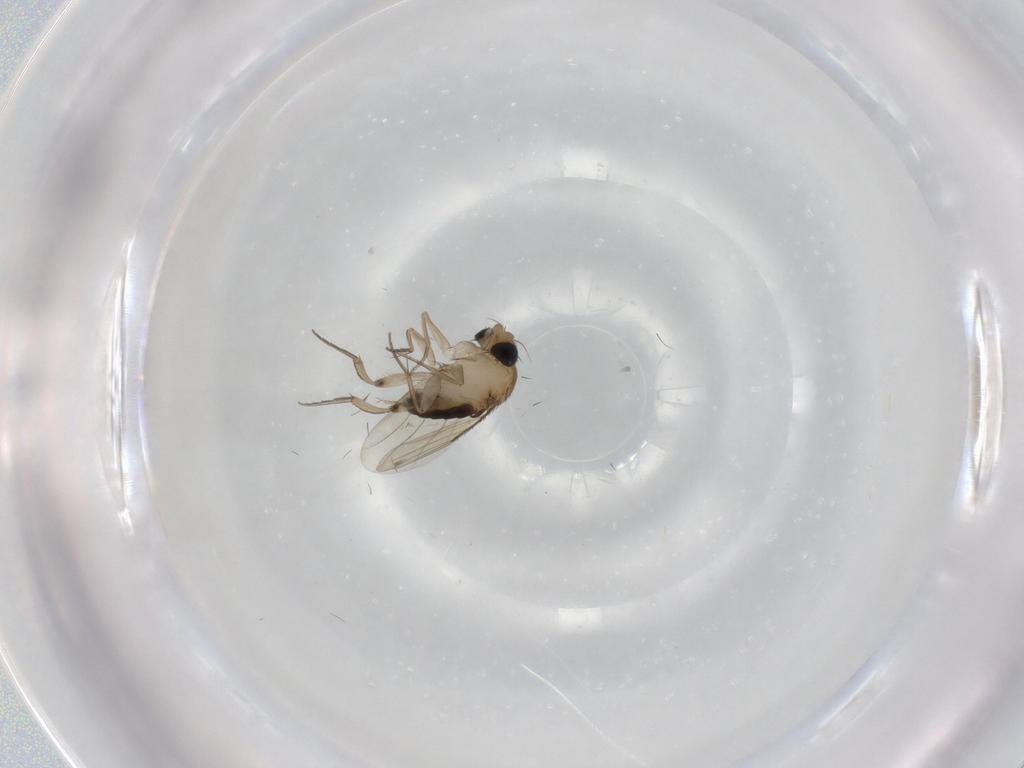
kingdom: Animalia
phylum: Arthropoda
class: Insecta
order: Diptera
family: Phoridae
